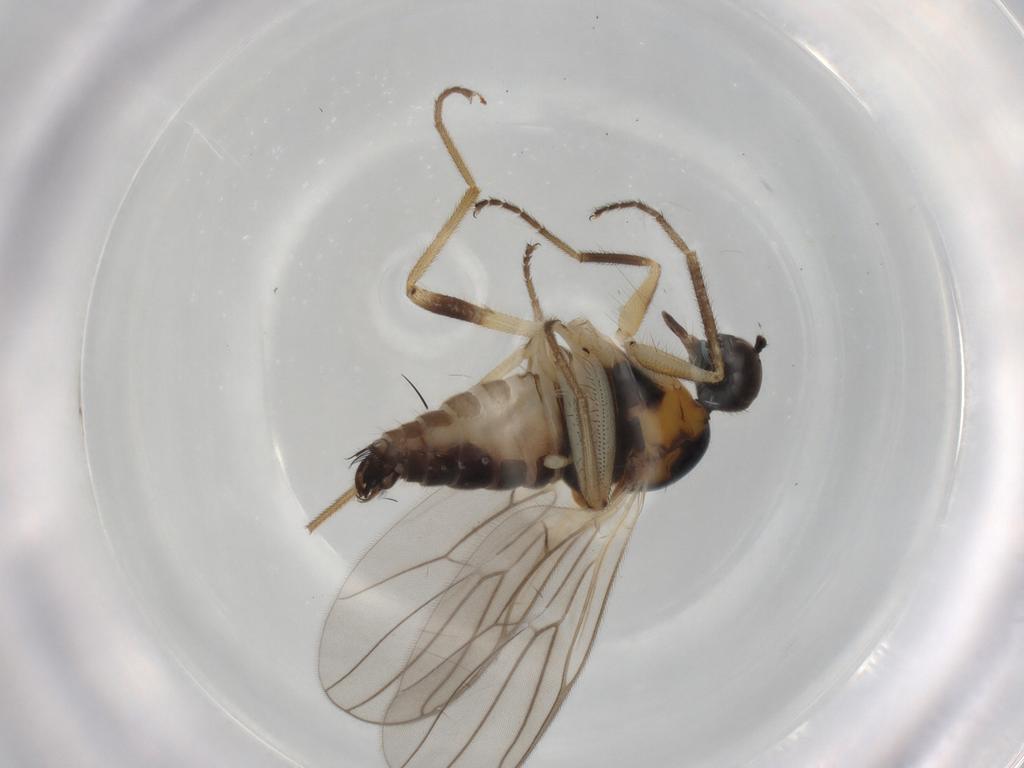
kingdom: Animalia
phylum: Arthropoda
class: Insecta
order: Diptera
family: Hybotidae
